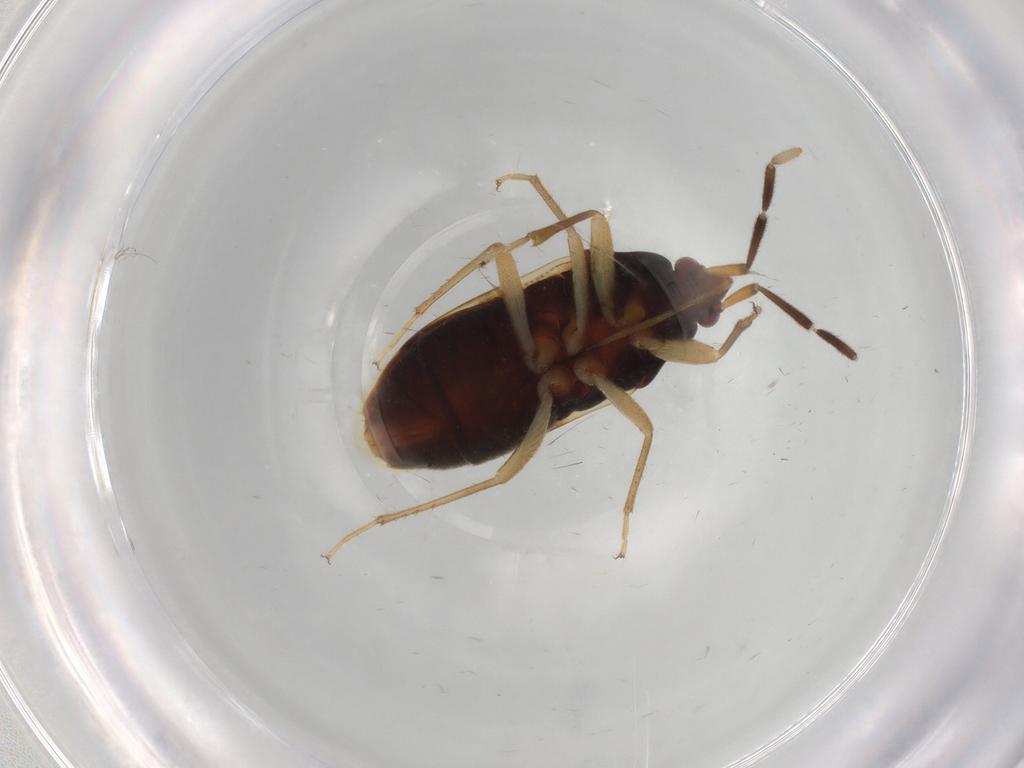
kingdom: Animalia
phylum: Arthropoda
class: Insecta
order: Hemiptera
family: Rhyparochromidae
